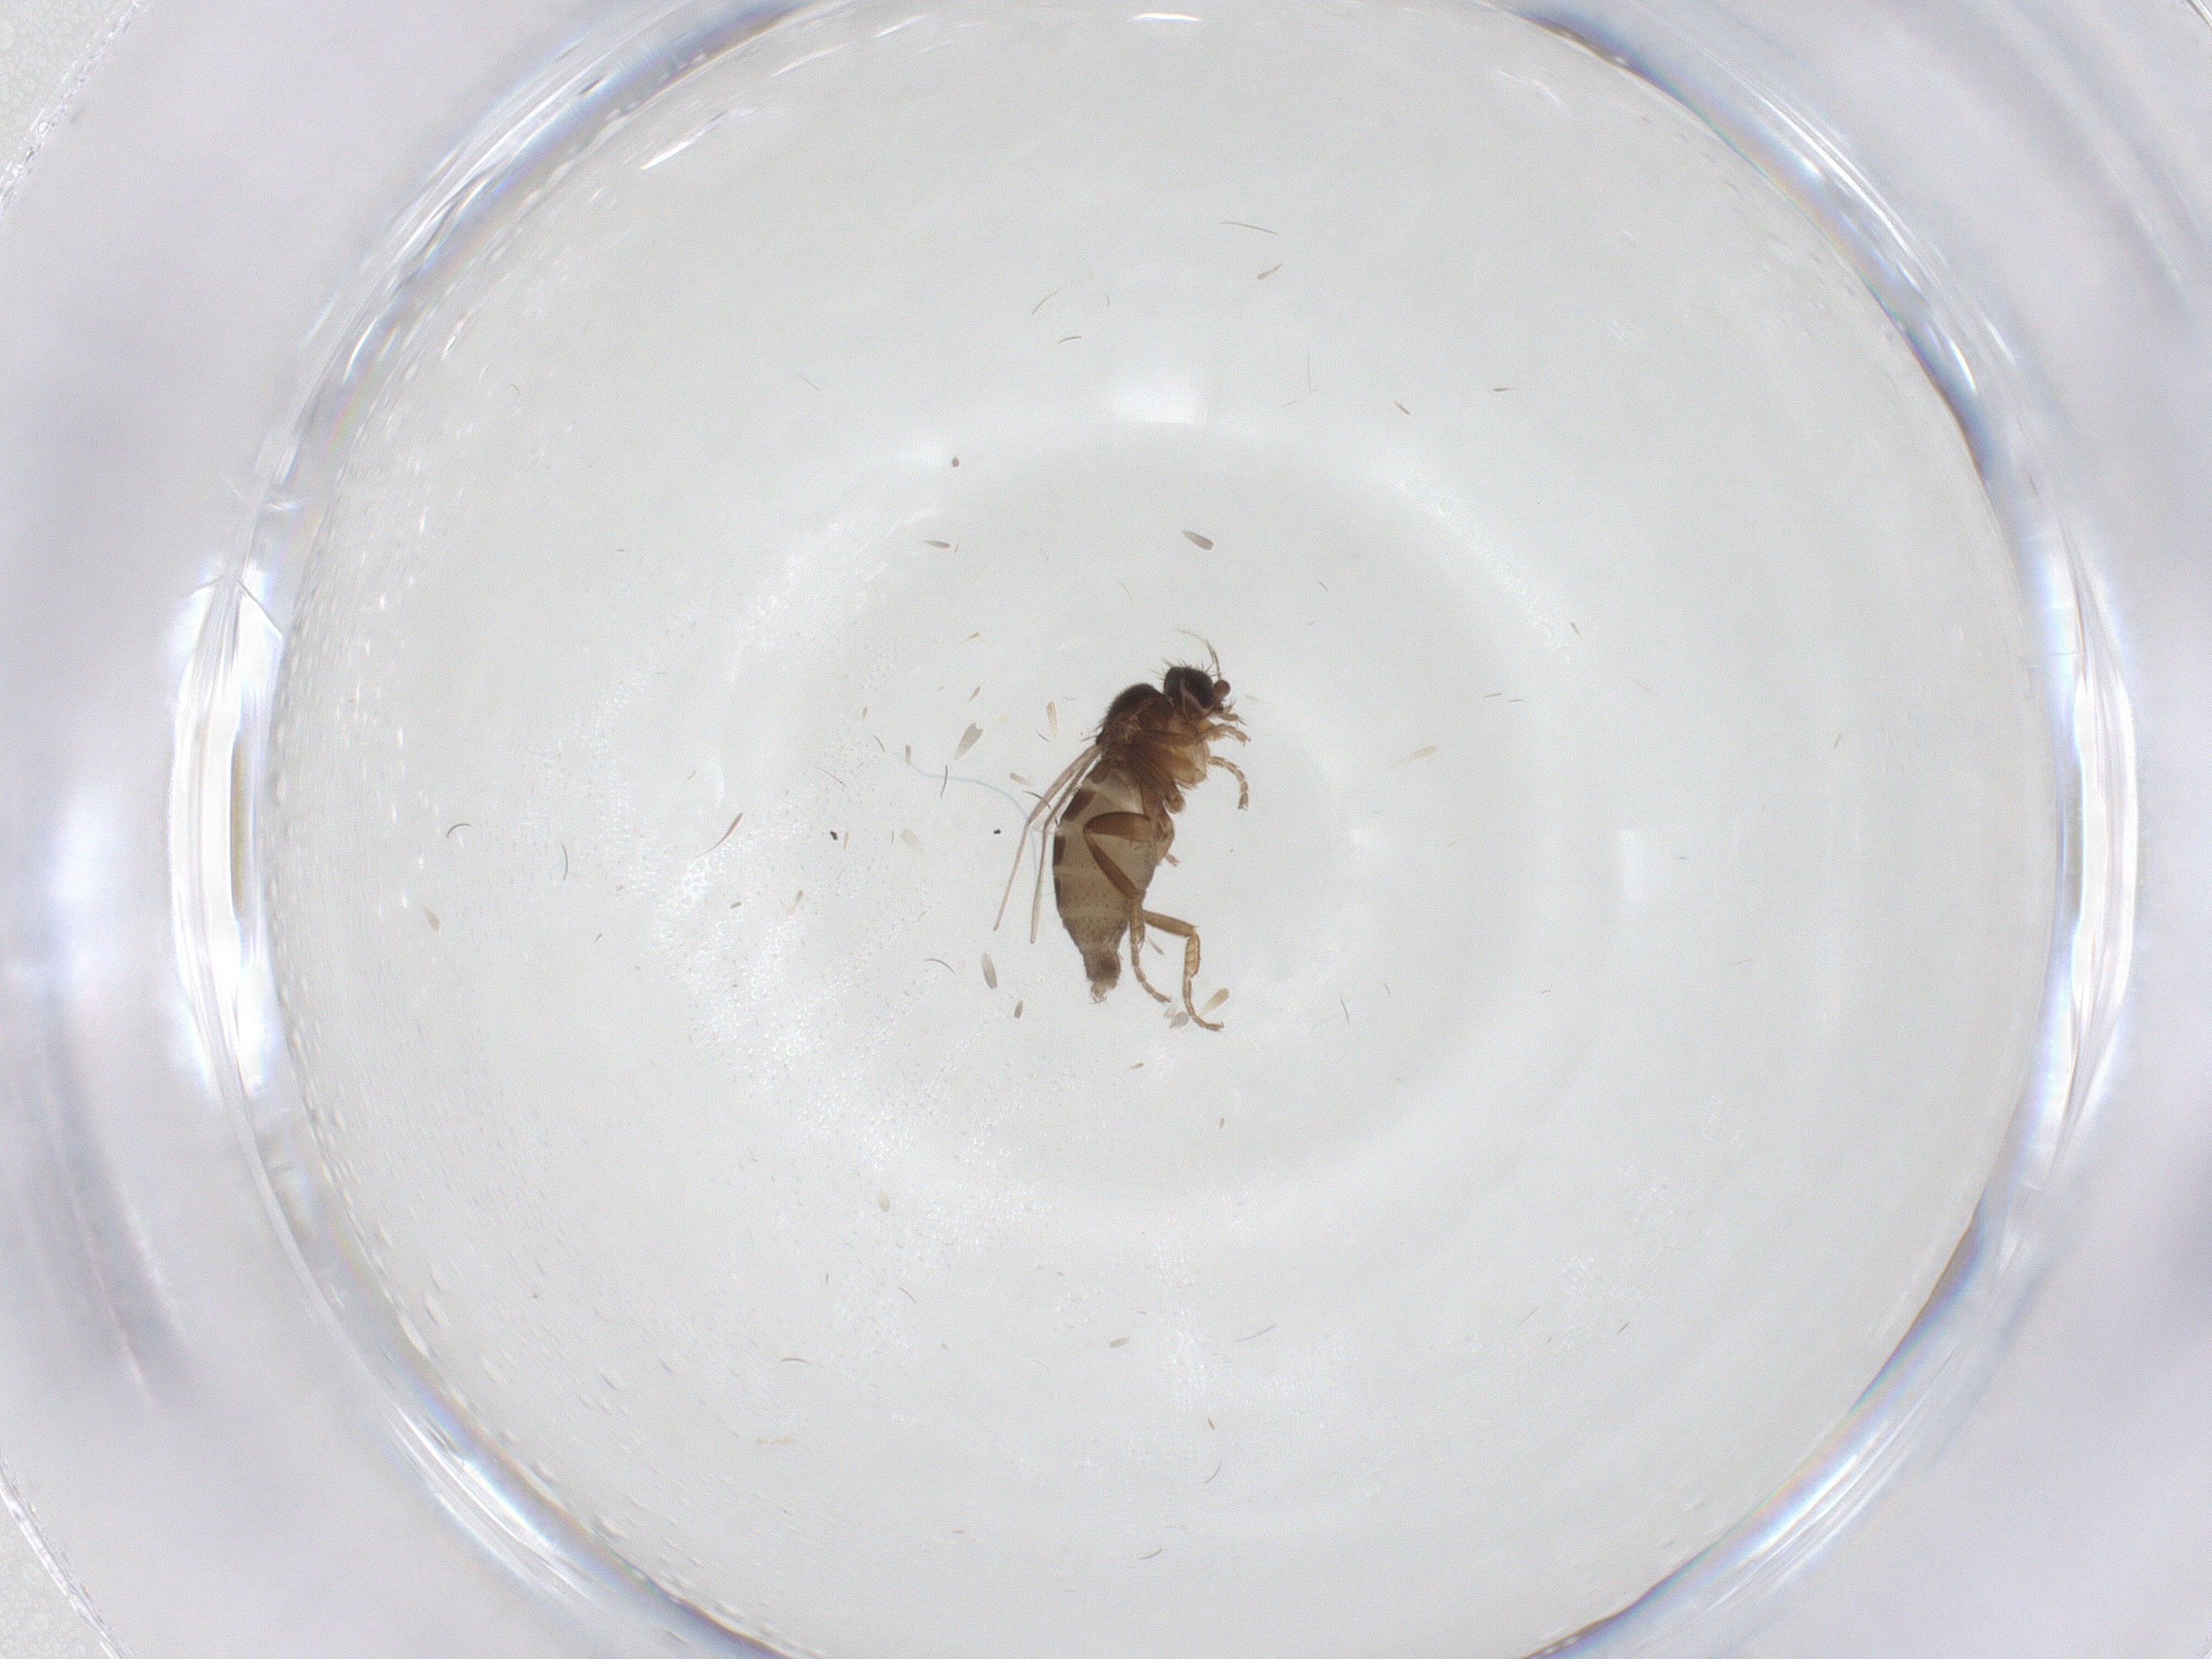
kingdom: Animalia
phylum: Arthropoda
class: Insecta
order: Diptera
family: Phoridae
